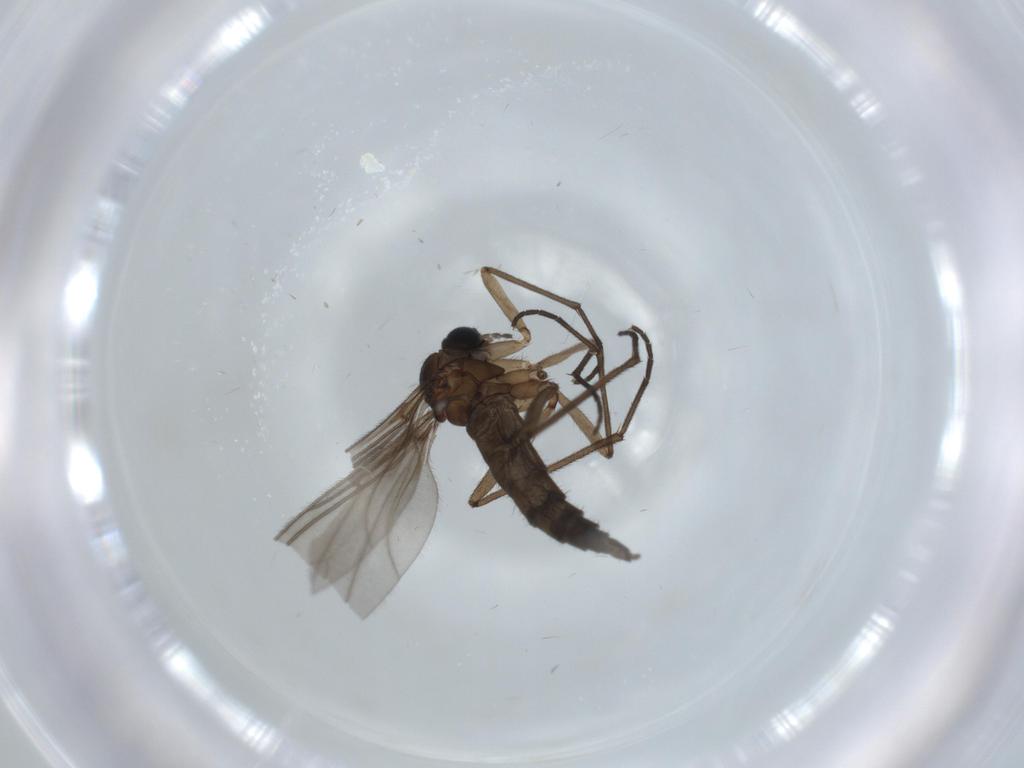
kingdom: Animalia
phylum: Arthropoda
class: Insecta
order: Diptera
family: Sciaridae
